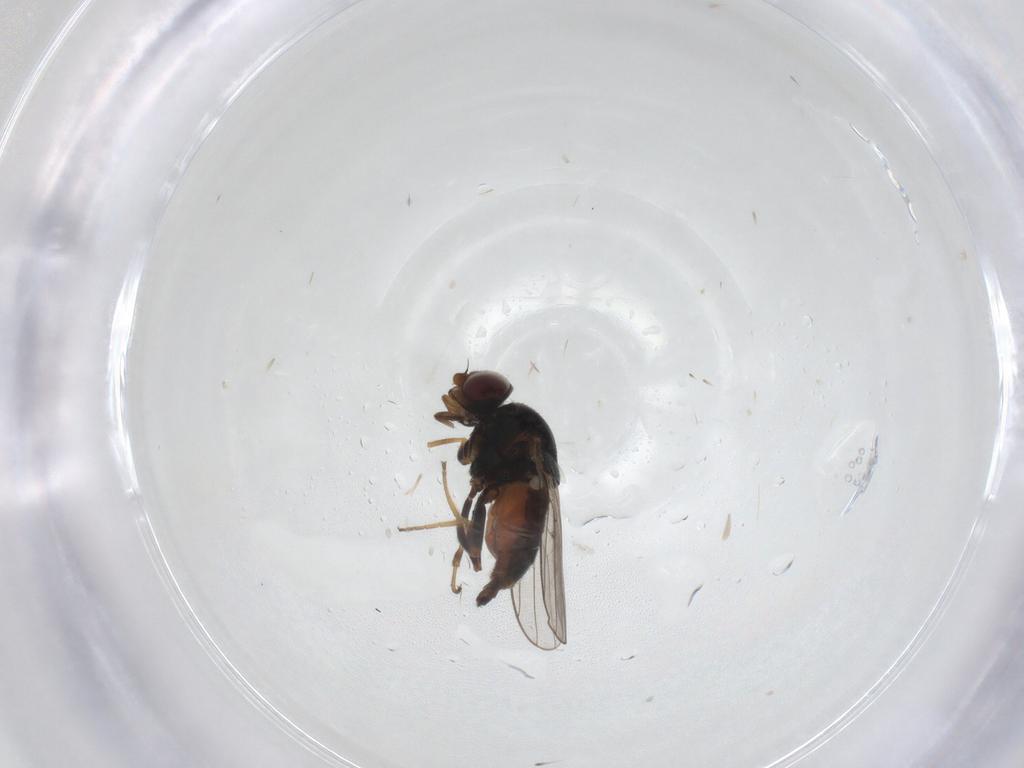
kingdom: Animalia
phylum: Arthropoda
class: Insecta
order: Diptera
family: Chloropidae
